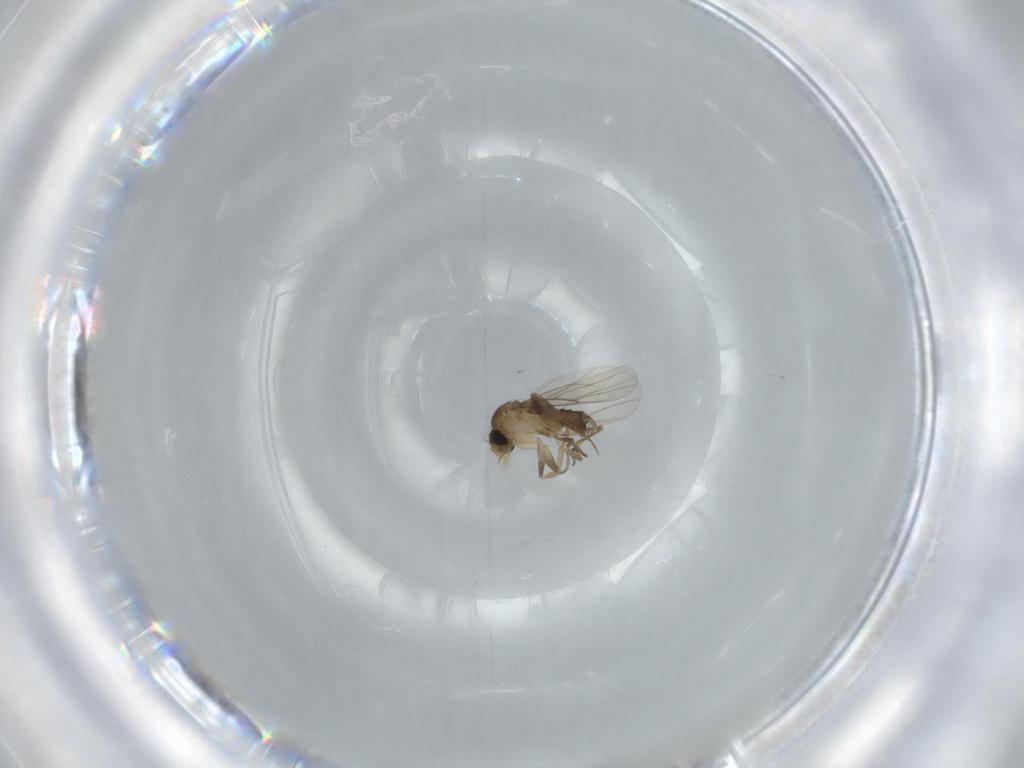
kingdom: Animalia
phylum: Arthropoda
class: Insecta
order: Diptera
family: Phoridae
